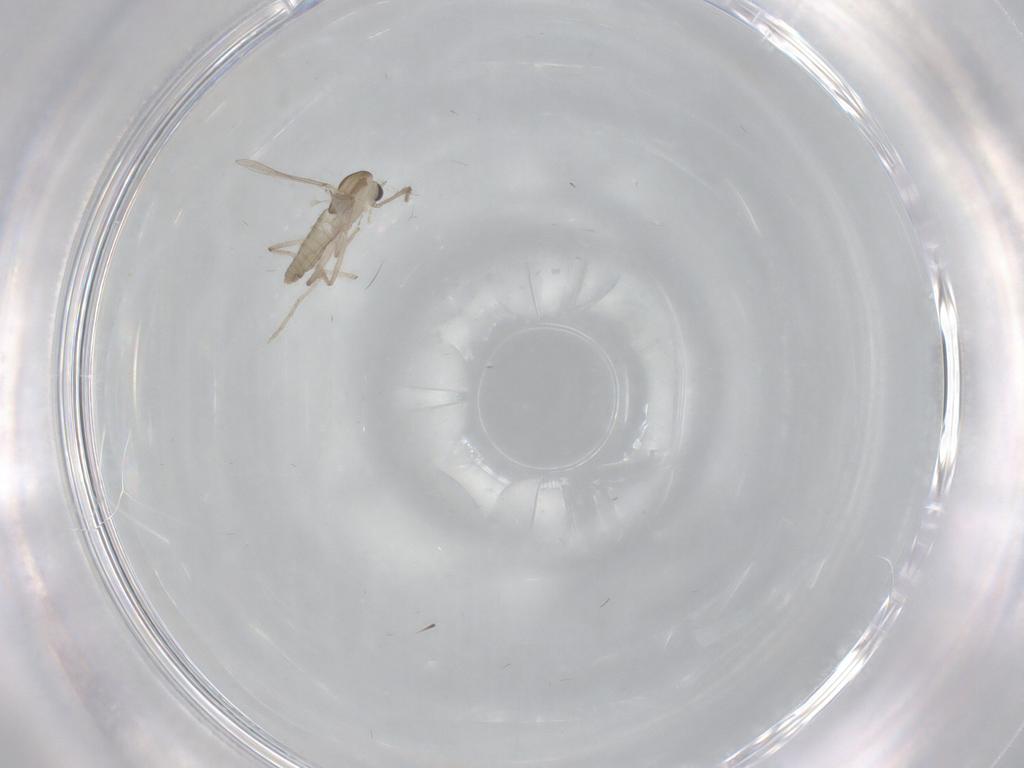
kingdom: Animalia
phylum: Arthropoda
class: Insecta
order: Diptera
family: Chironomidae
